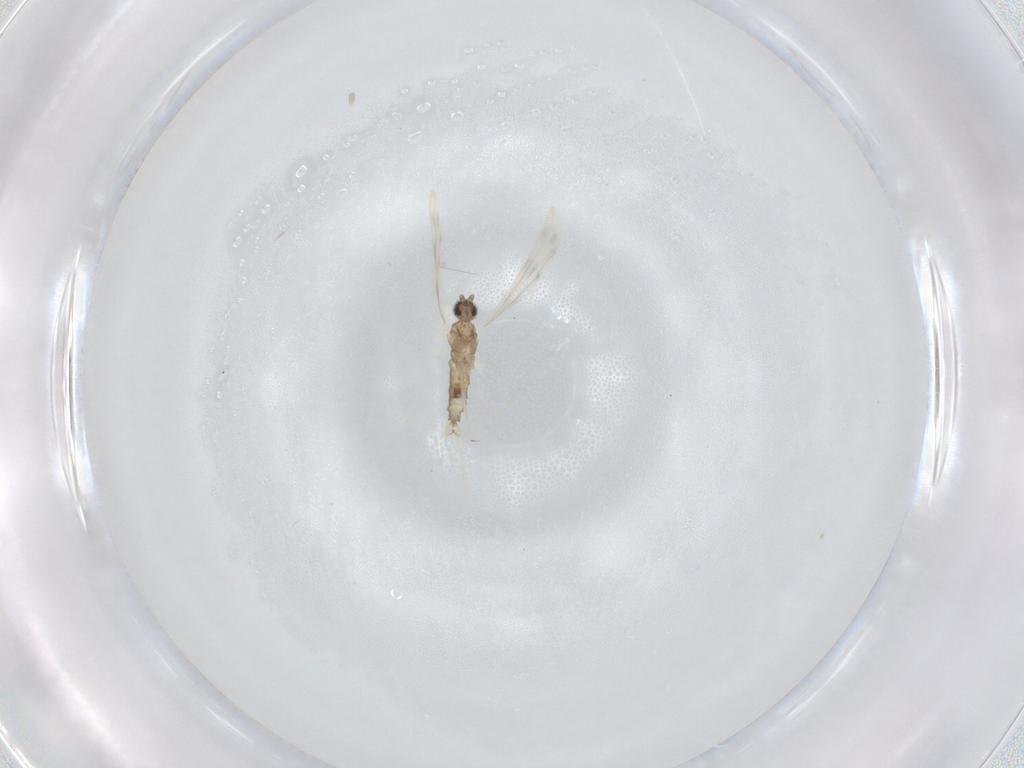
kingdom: Animalia
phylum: Arthropoda
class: Insecta
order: Diptera
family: Cecidomyiidae
